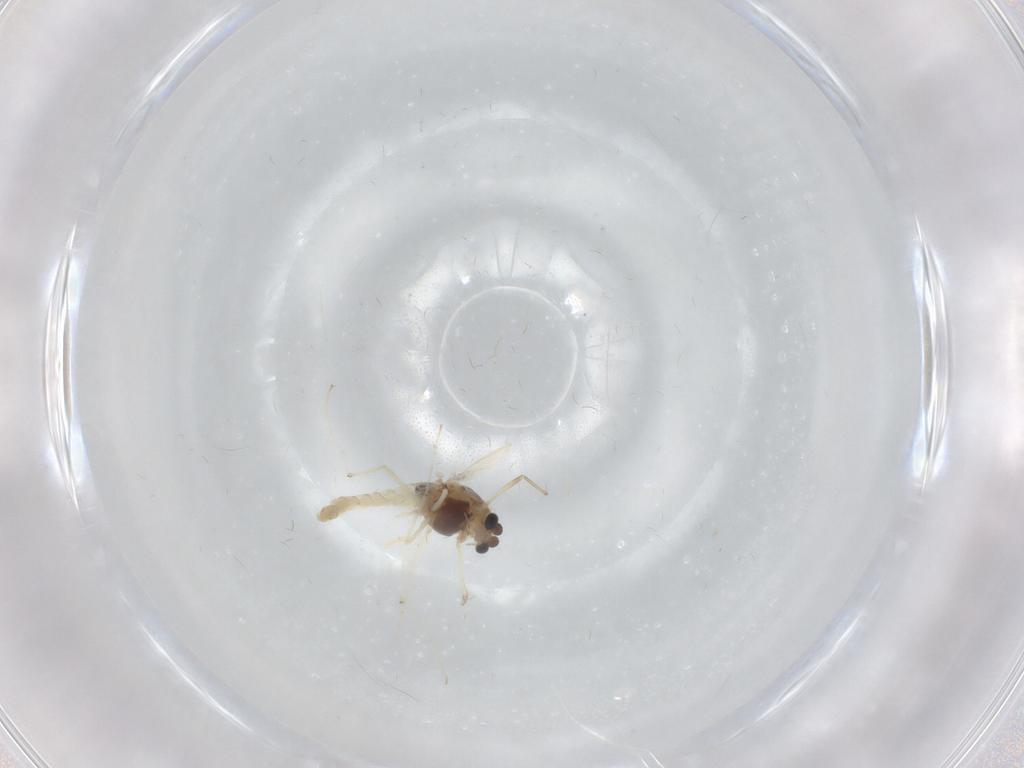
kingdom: Animalia
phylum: Arthropoda
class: Insecta
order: Diptera
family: Chironomidae
